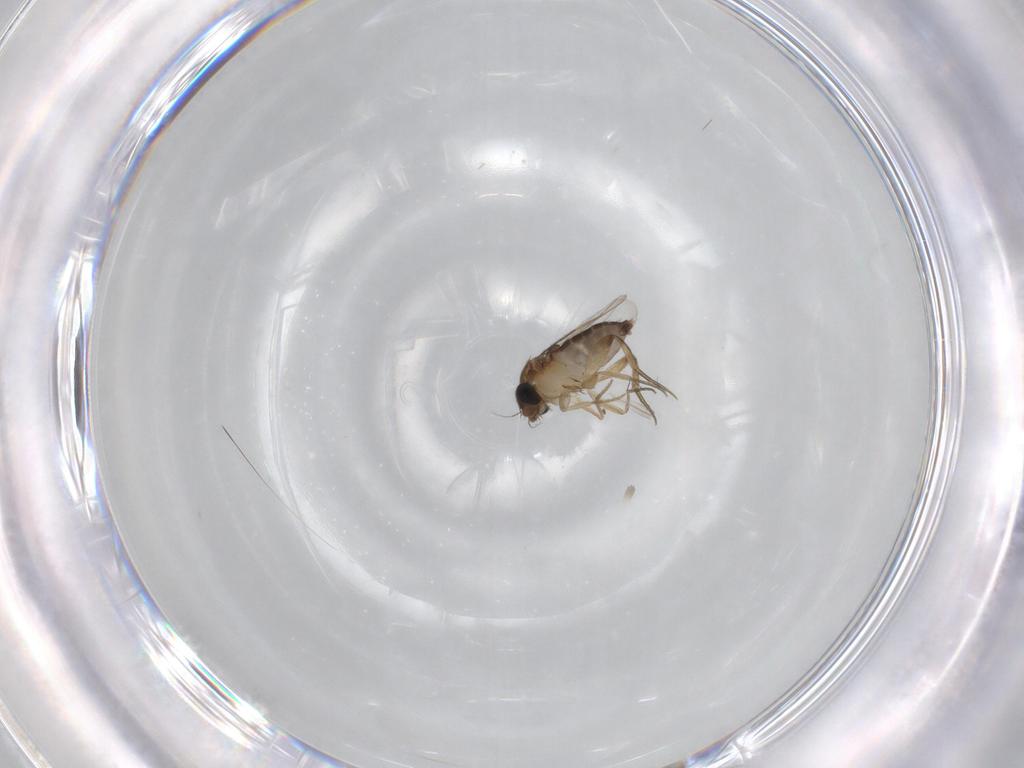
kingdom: Animalia
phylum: Arthropoda
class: Insecta
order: Diptera
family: Phoridae
